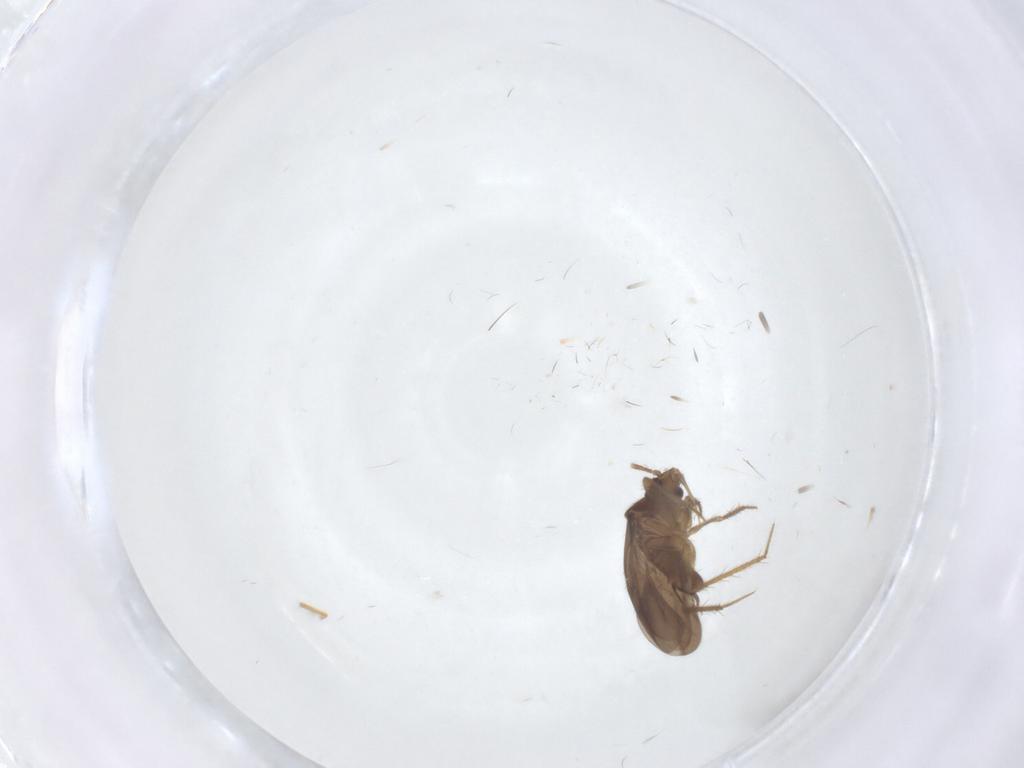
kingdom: Animalia
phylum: Arthropoda
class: Insecta
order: Hemiptera
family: Ceratocombidae
